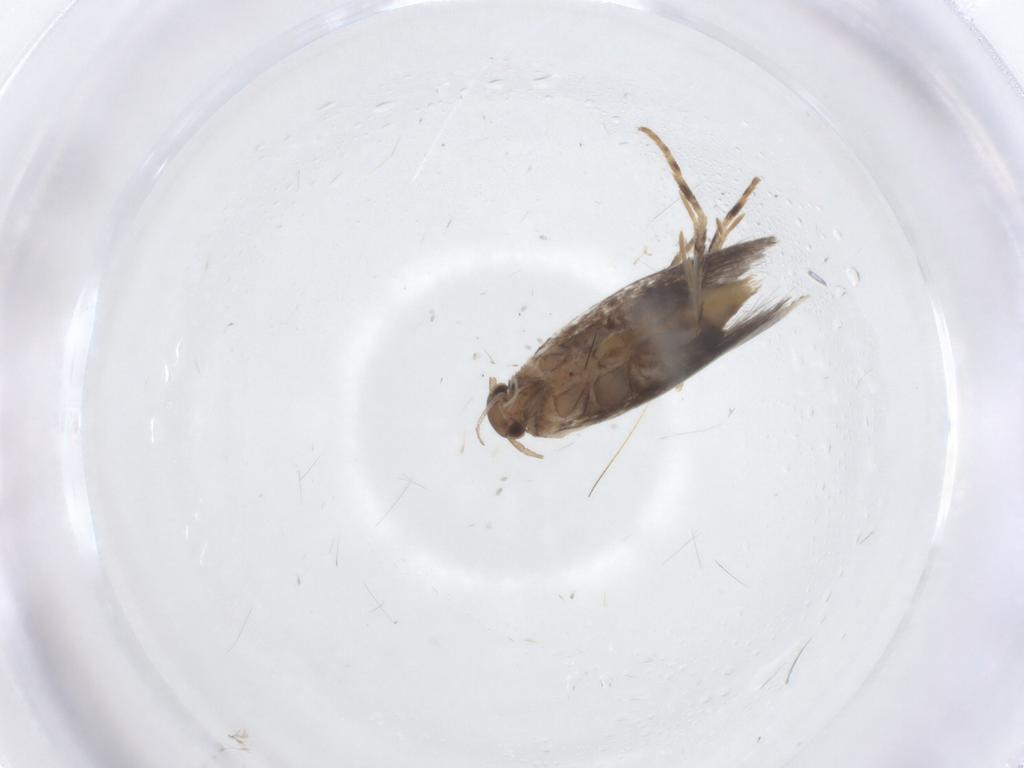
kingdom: Animalia
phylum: Arthropoda
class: Insecta
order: Lepidoptera
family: Elachistidae
